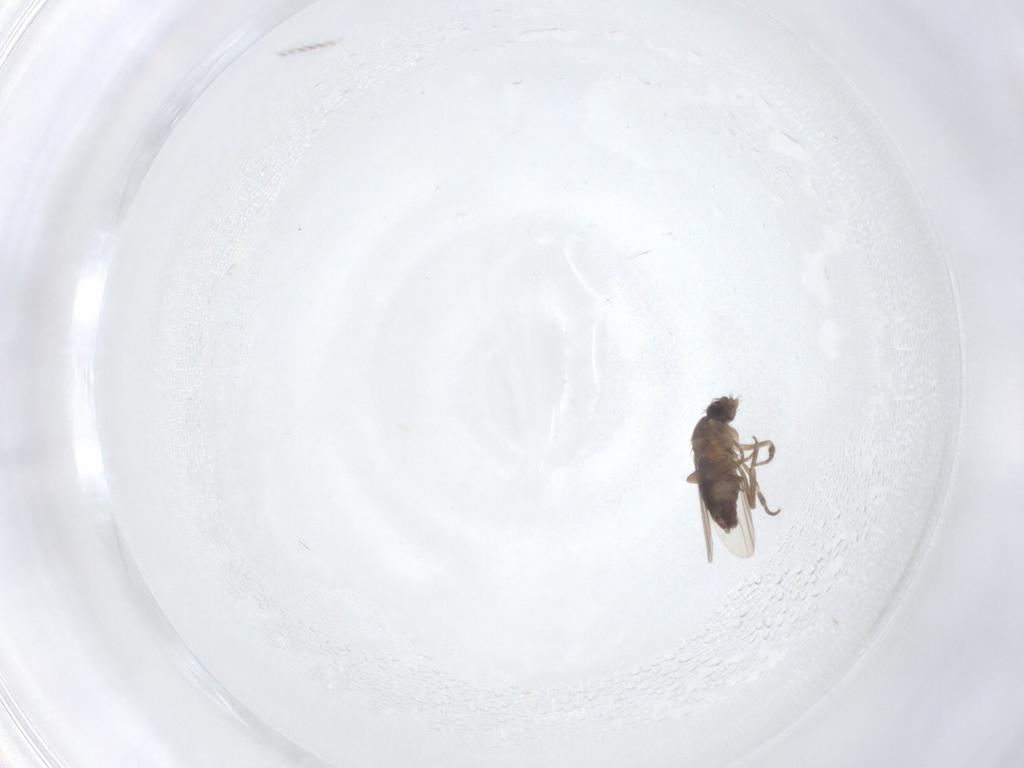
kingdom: Animalia
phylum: Arthropoda
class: Insecta
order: Diptera
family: Phoridae
